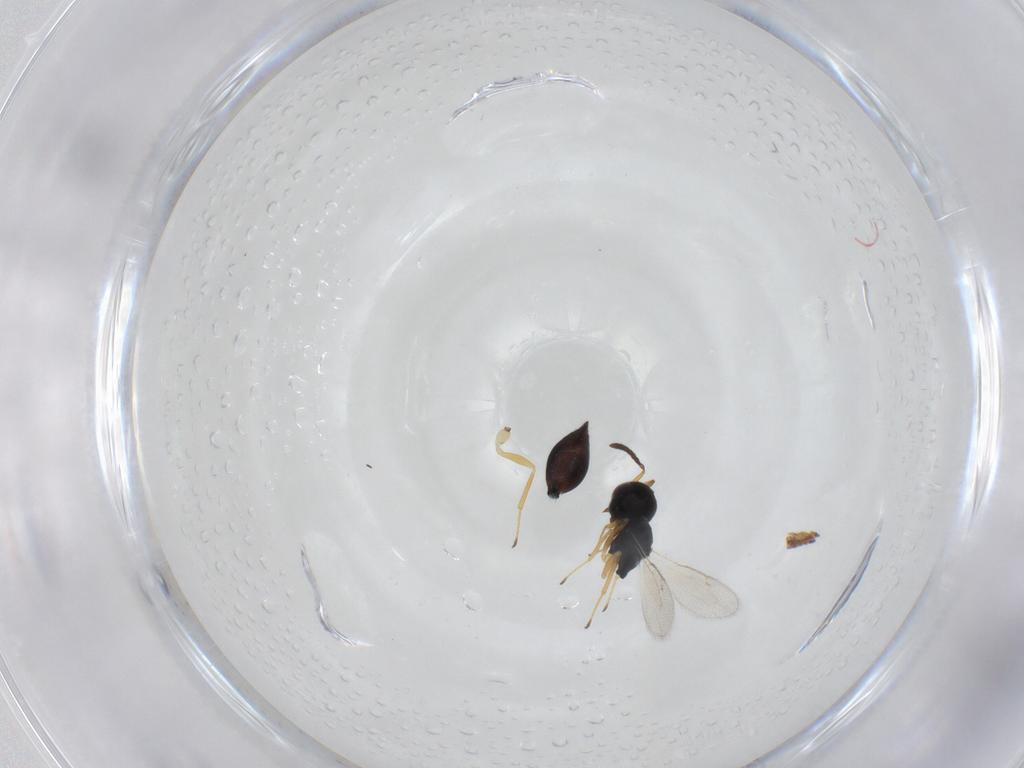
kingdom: Animalia
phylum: Arthropoda
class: Insecta
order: Hymenoptera
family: Pteromalidae
